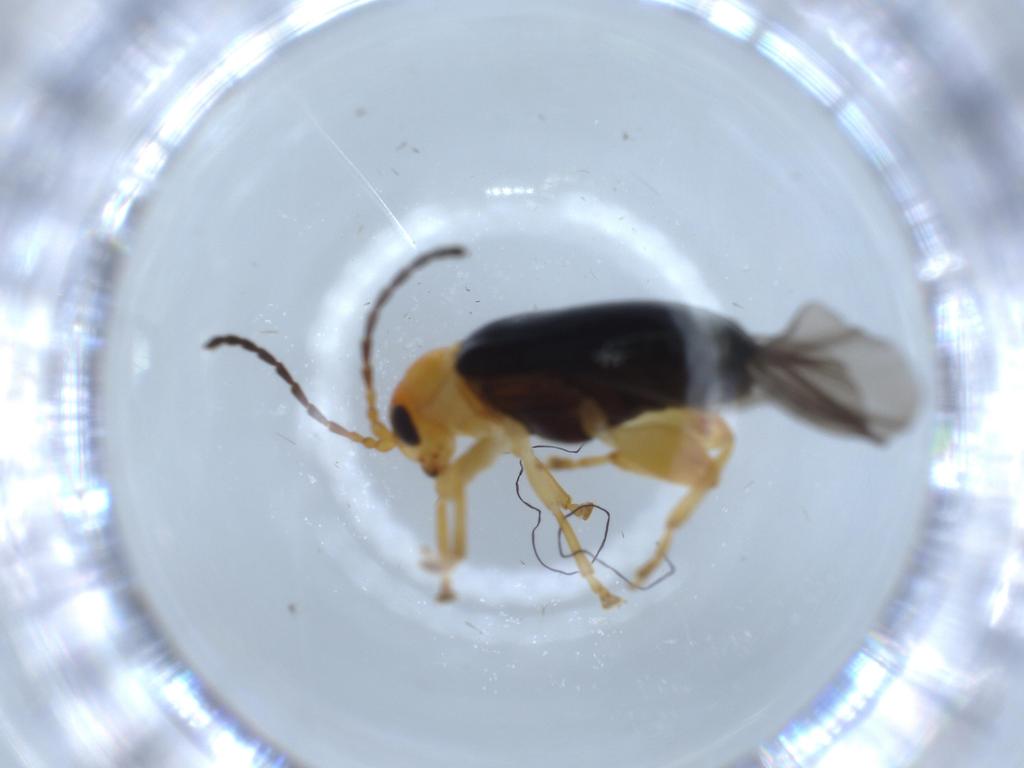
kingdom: Animalia
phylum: Arthropoda
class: Insecta
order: Coleoptera
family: Chrysomelidae
